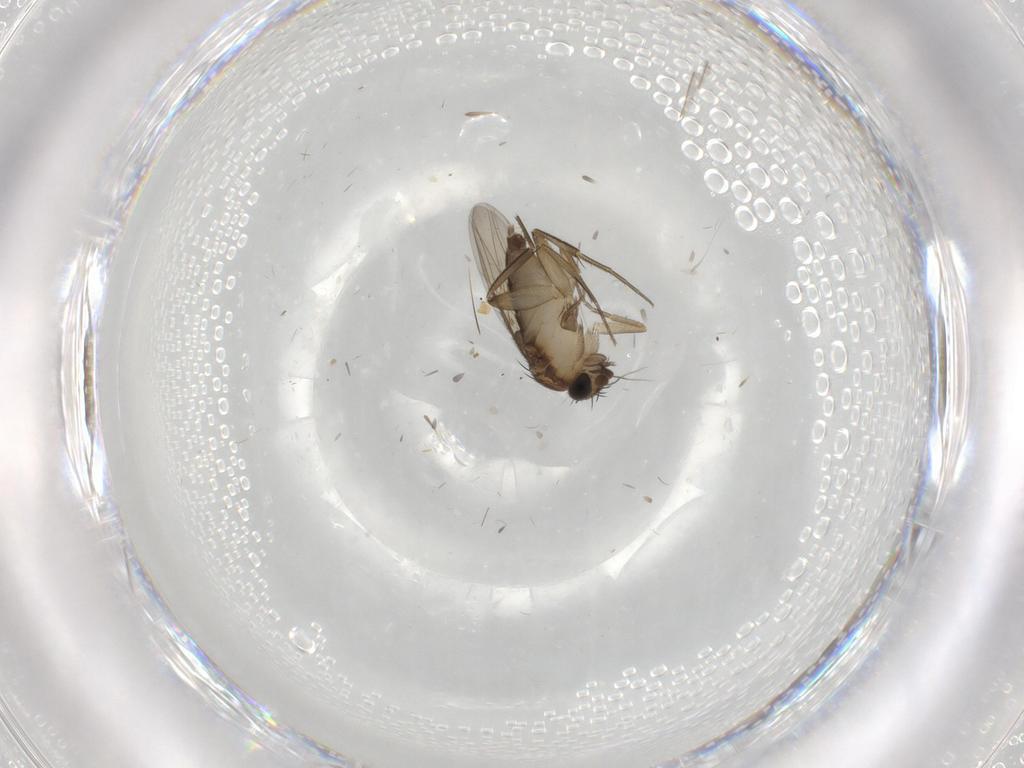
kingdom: Animalia
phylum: Arthropoda
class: Insecta
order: Diptera
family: Phoridae
